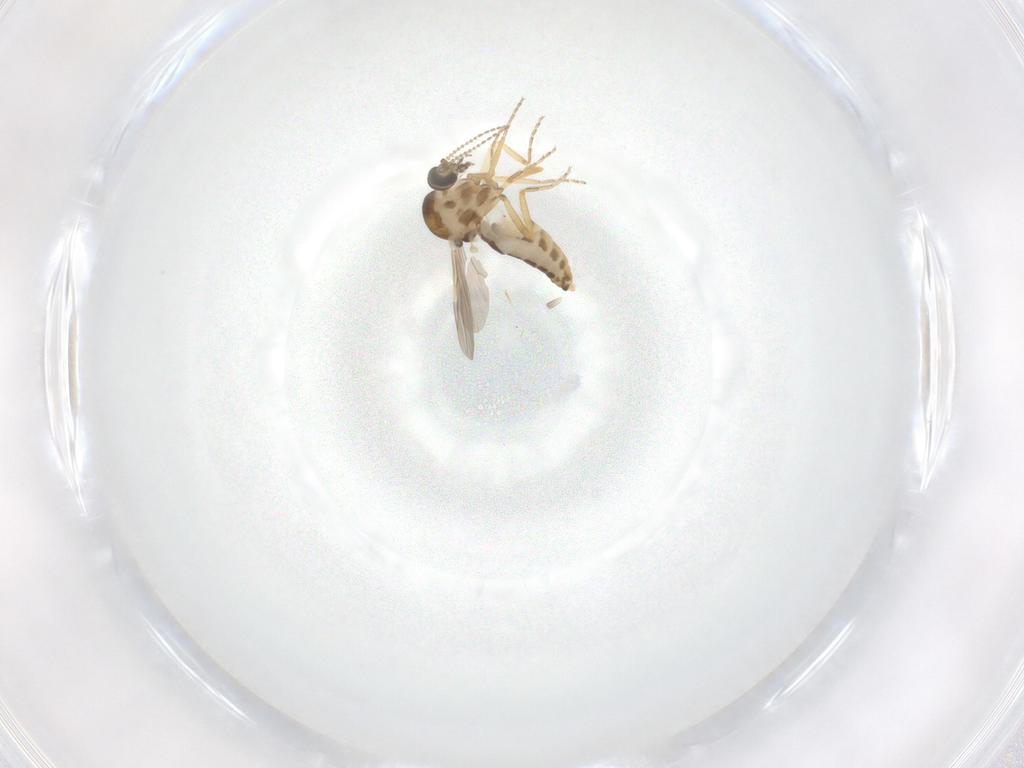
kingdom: Animalia
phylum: Arthropoda
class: Insecta
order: Diptera
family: Ceratopogonidae
